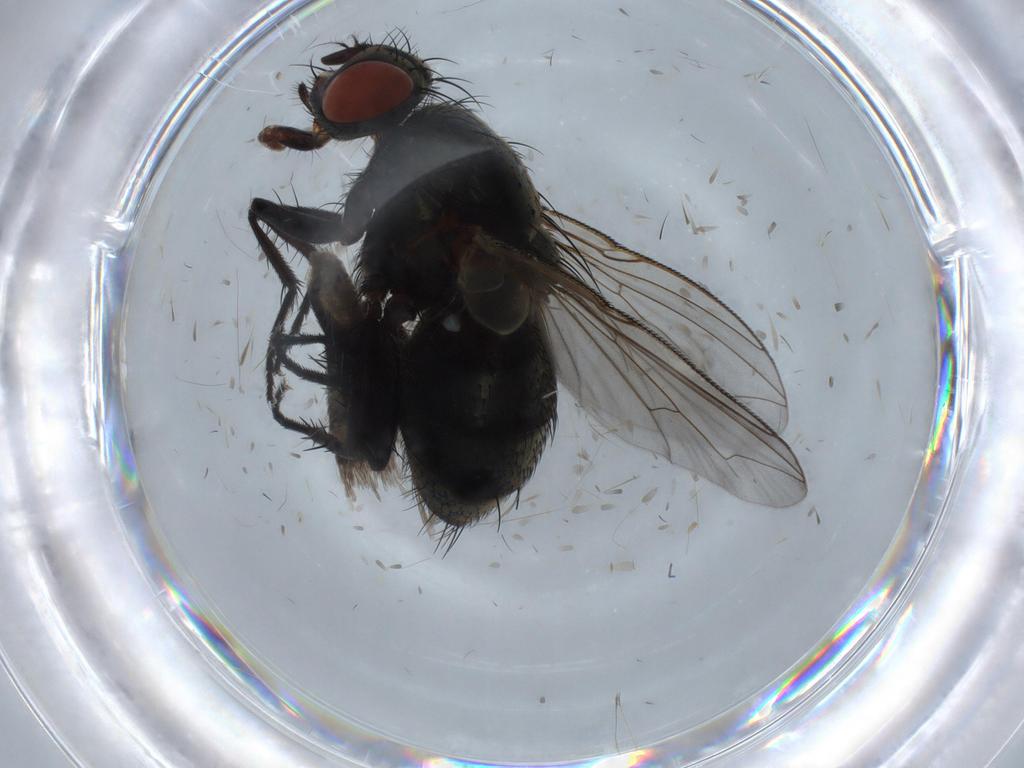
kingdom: Animalia
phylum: Arthropoda
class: Insecta
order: Diptera
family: Sarcophagidae
